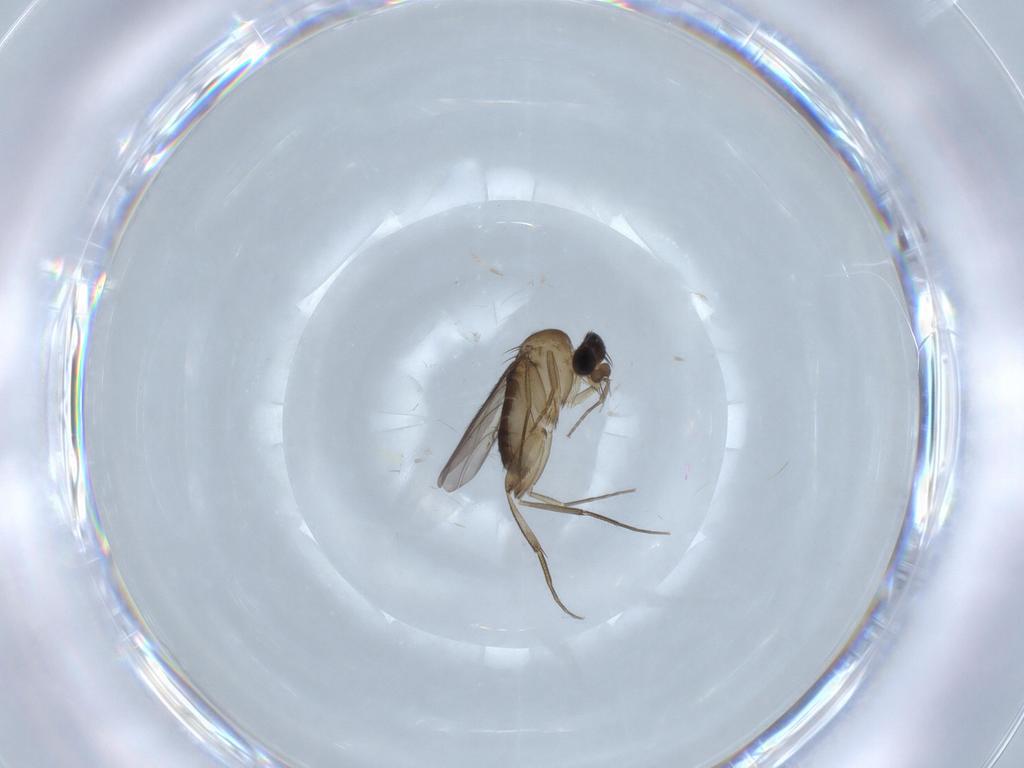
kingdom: Animalia
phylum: Arthropoda
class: Insecta
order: Diptera
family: Phoridae
